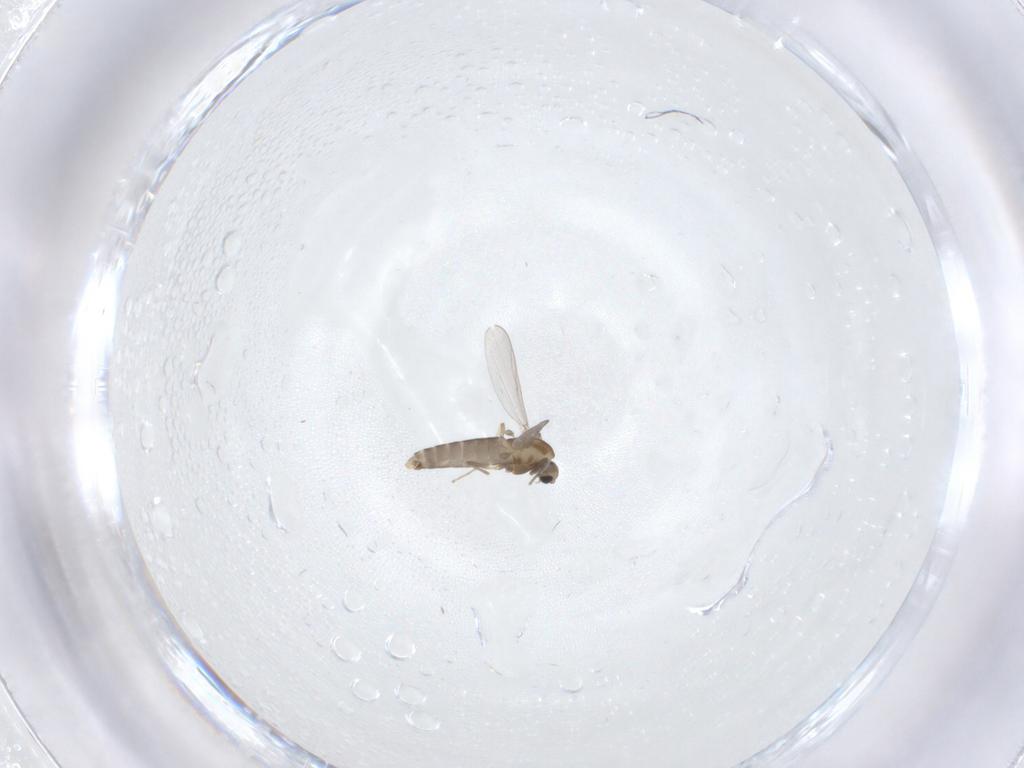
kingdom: Animalia
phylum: Arthropoda
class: Insecta
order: Diptera
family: Chironomidae
